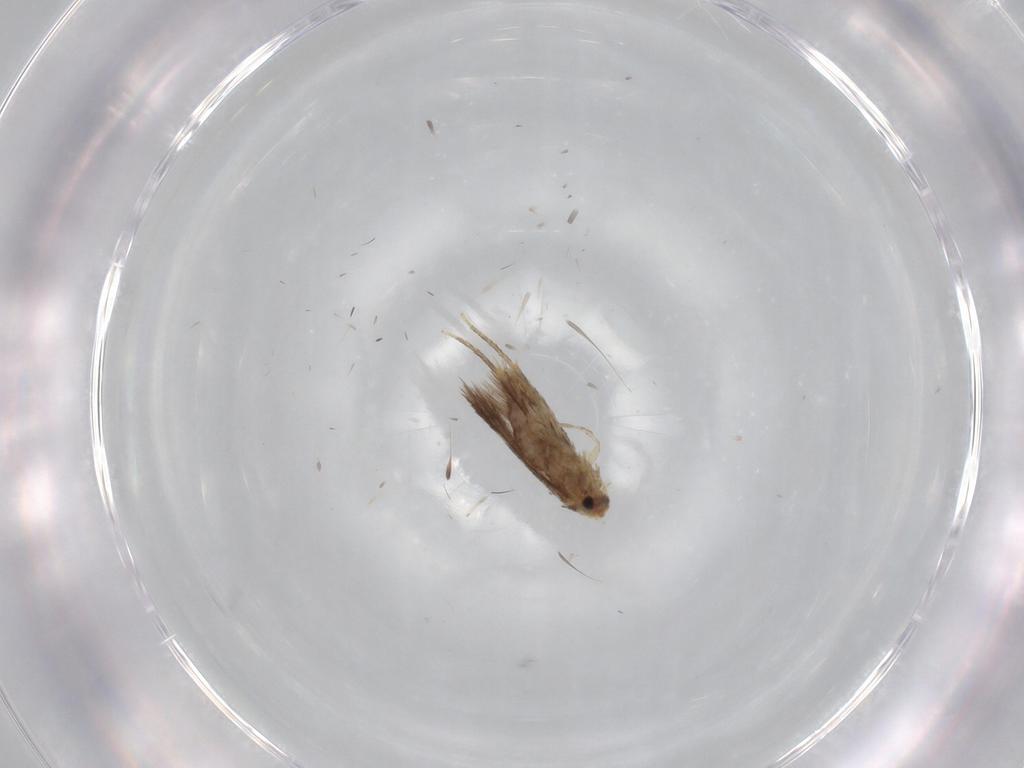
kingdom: Animalia
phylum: Arthropoda
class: Insecta
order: Lepidoptera
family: Nepticulidae
